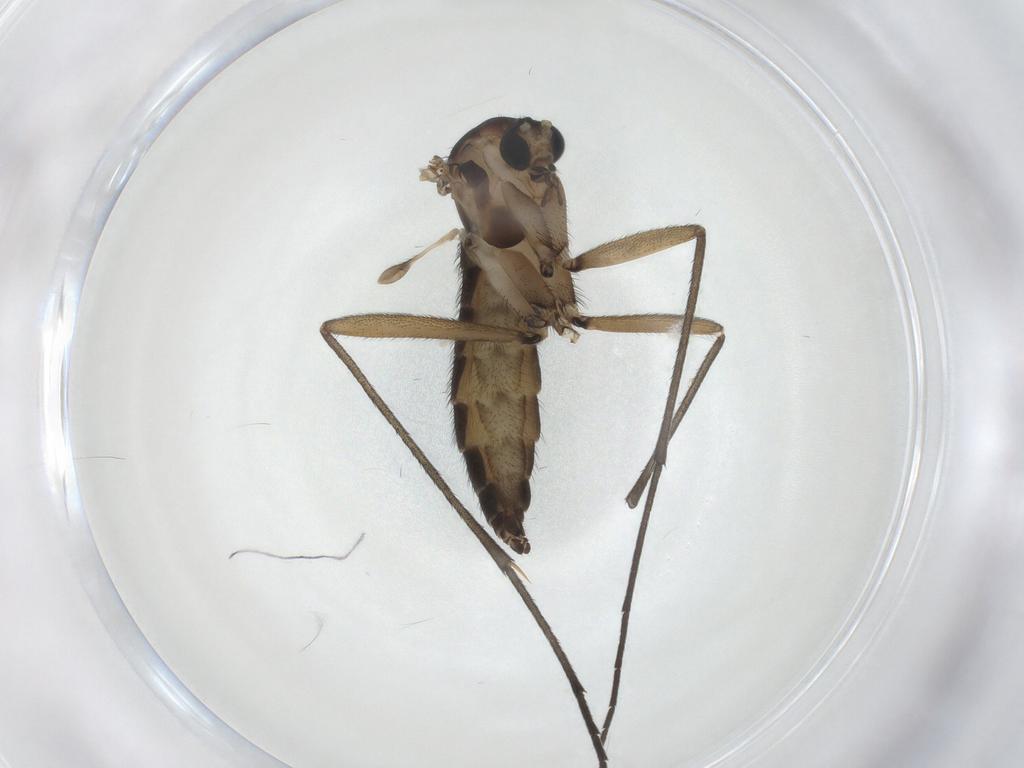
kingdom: Animalia
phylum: Arthropoda
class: Insecta
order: Diptera
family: Sciaridae
